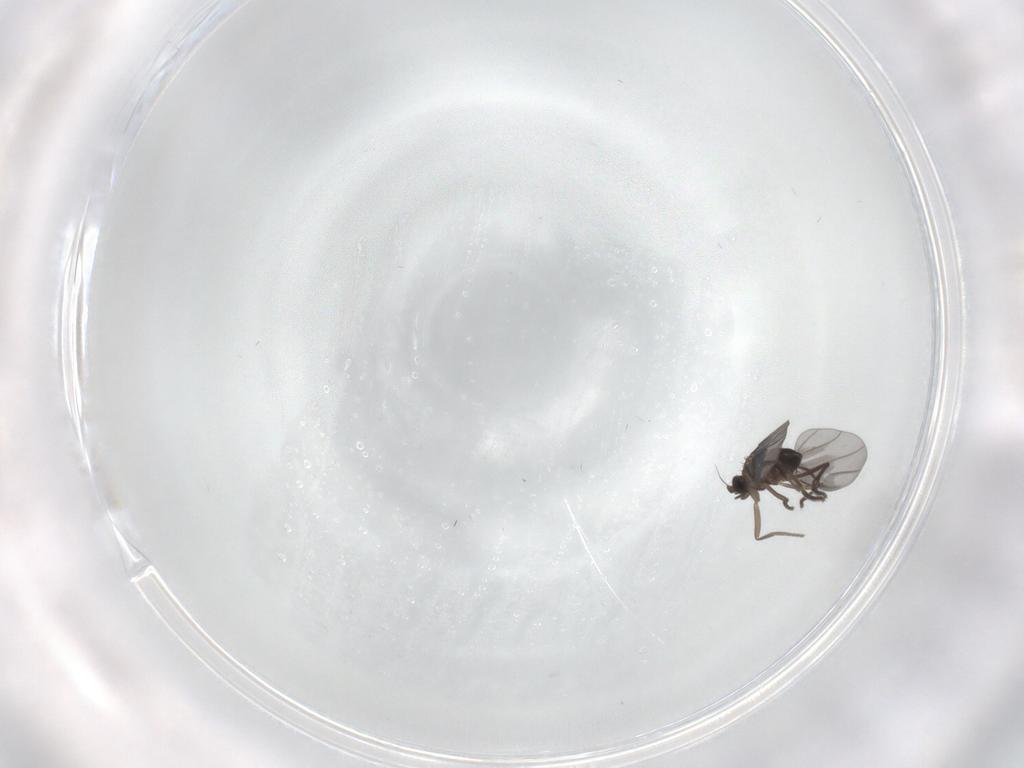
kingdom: Animalia
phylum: Arthropoda
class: Insecta
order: Diptera
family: Phoridae
